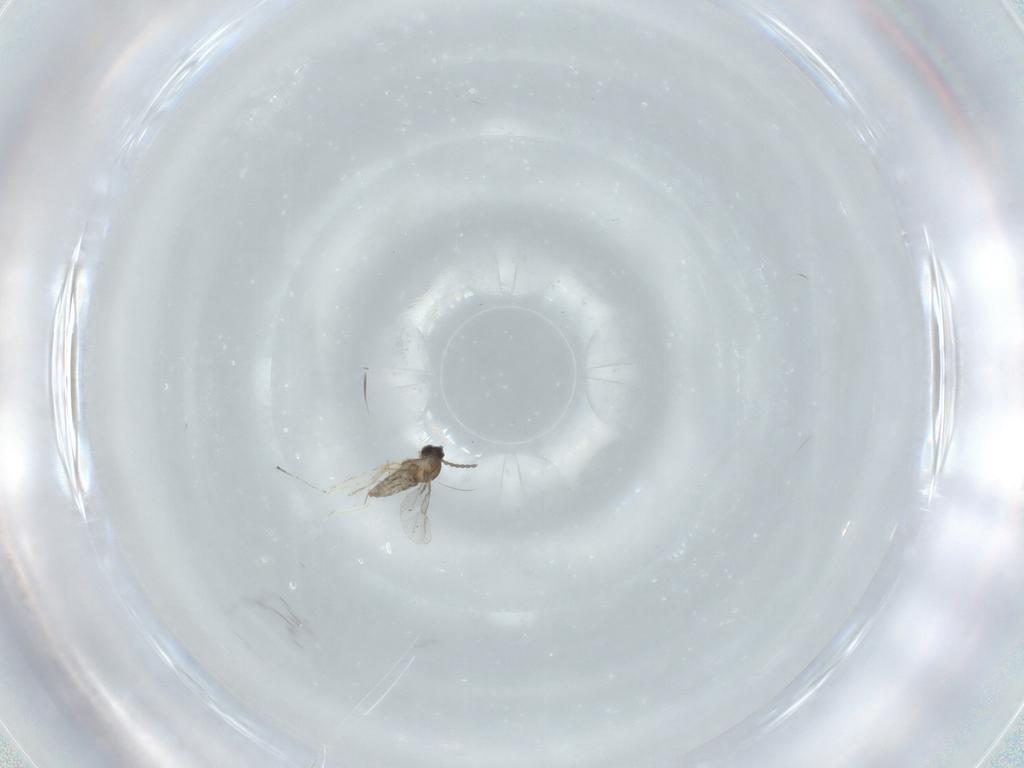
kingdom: Animalia
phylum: Arthropoda
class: Insecta
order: Diptera
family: Cecidomyiidae
